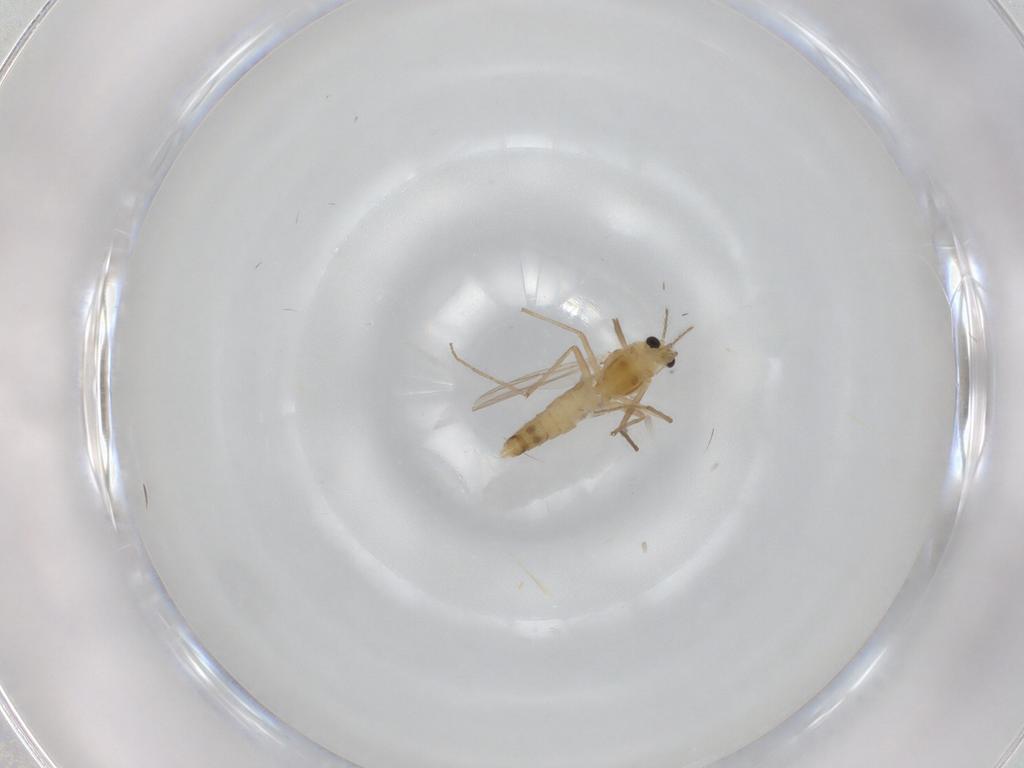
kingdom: Animalia
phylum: Arthropoda
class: Insecta
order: Diptera
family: Chironomidae
